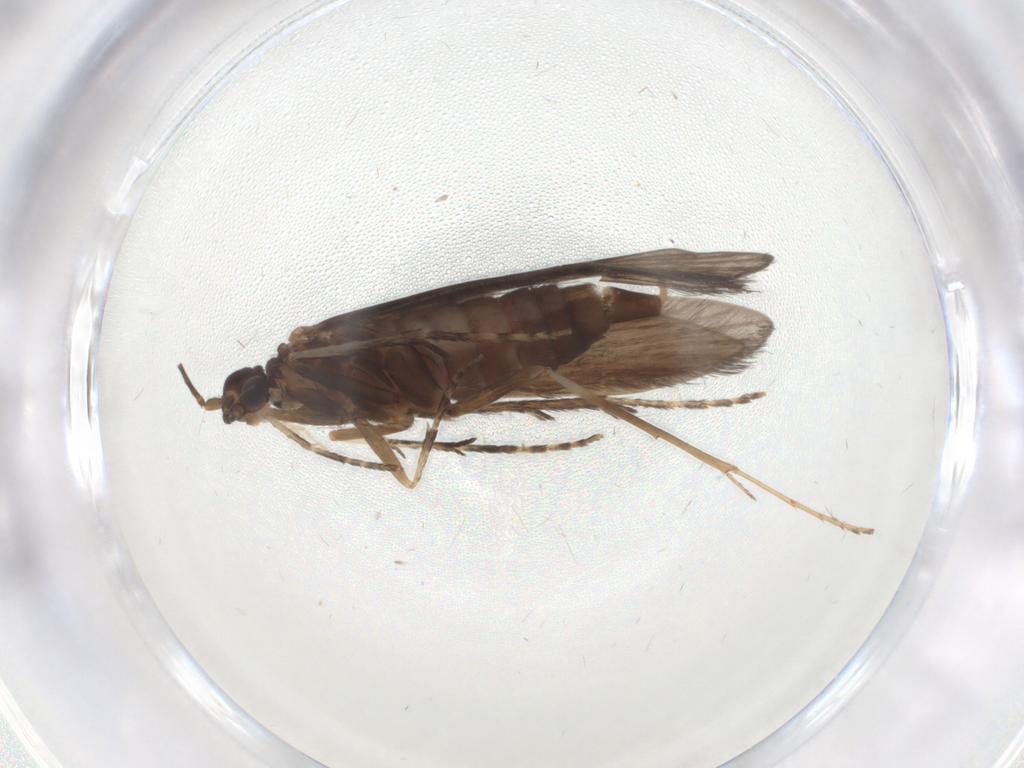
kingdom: Animalia
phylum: Arthropoda
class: Insecta
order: Trichoptera
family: Xiphocentronidae
